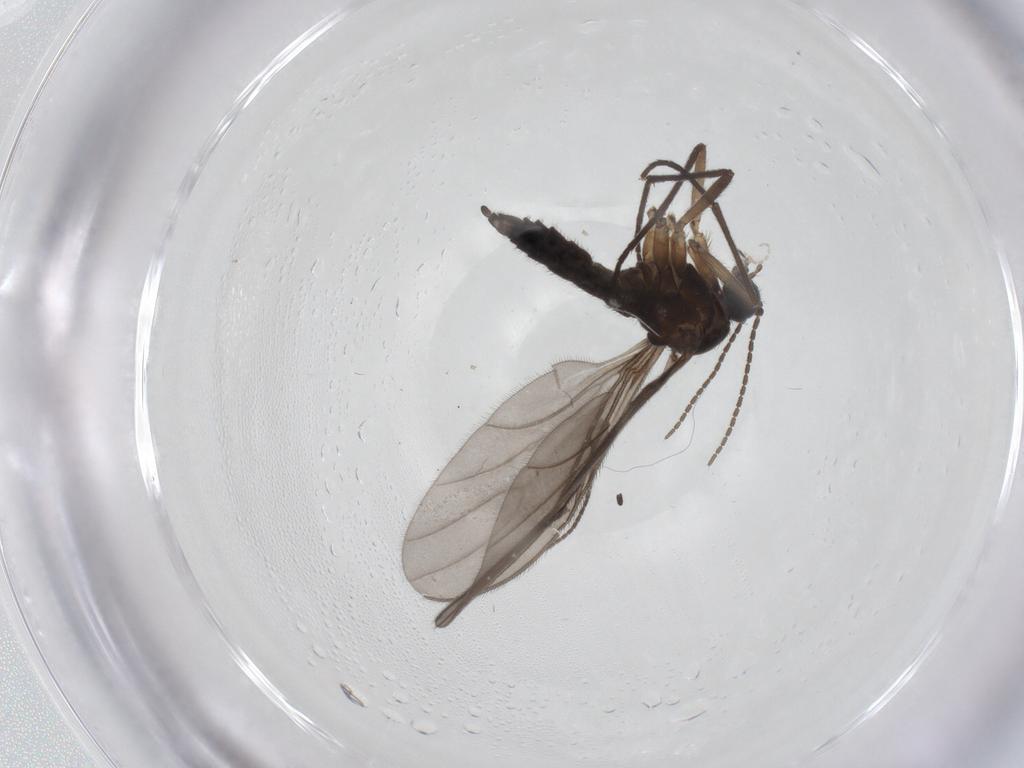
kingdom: Animalia
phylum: Arthropoda
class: Insecta
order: Diptera
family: Sciaridae
